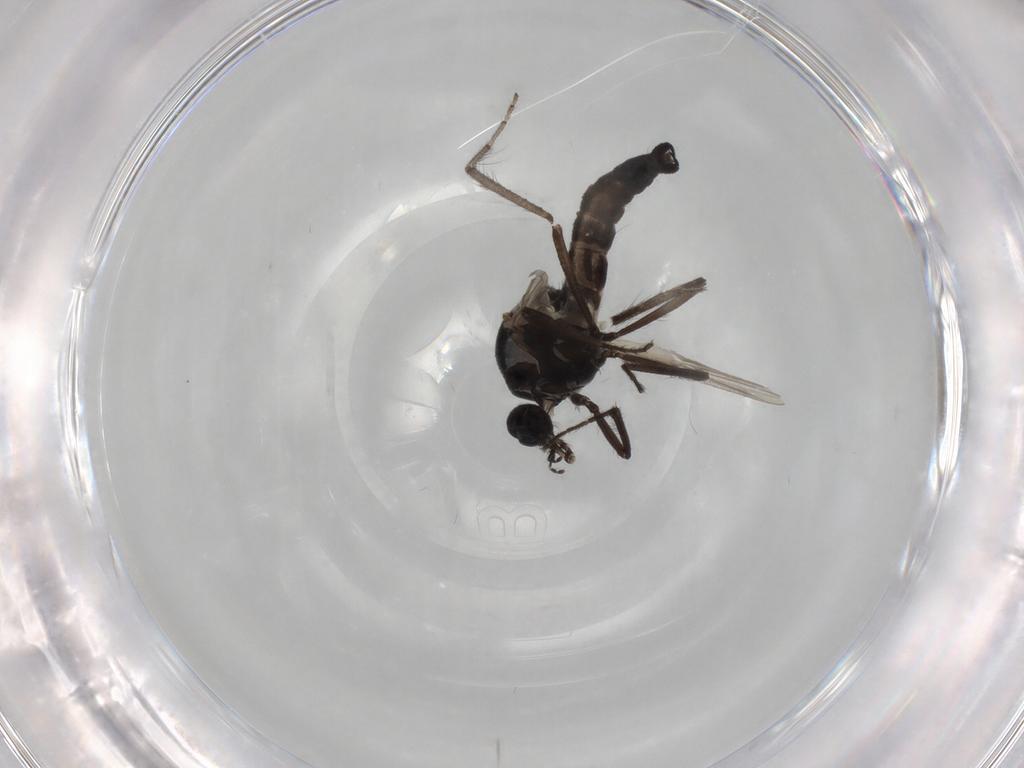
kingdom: Animalia
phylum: Arthropoda
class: Insecta
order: Diptera
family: Ceratopogonidae
